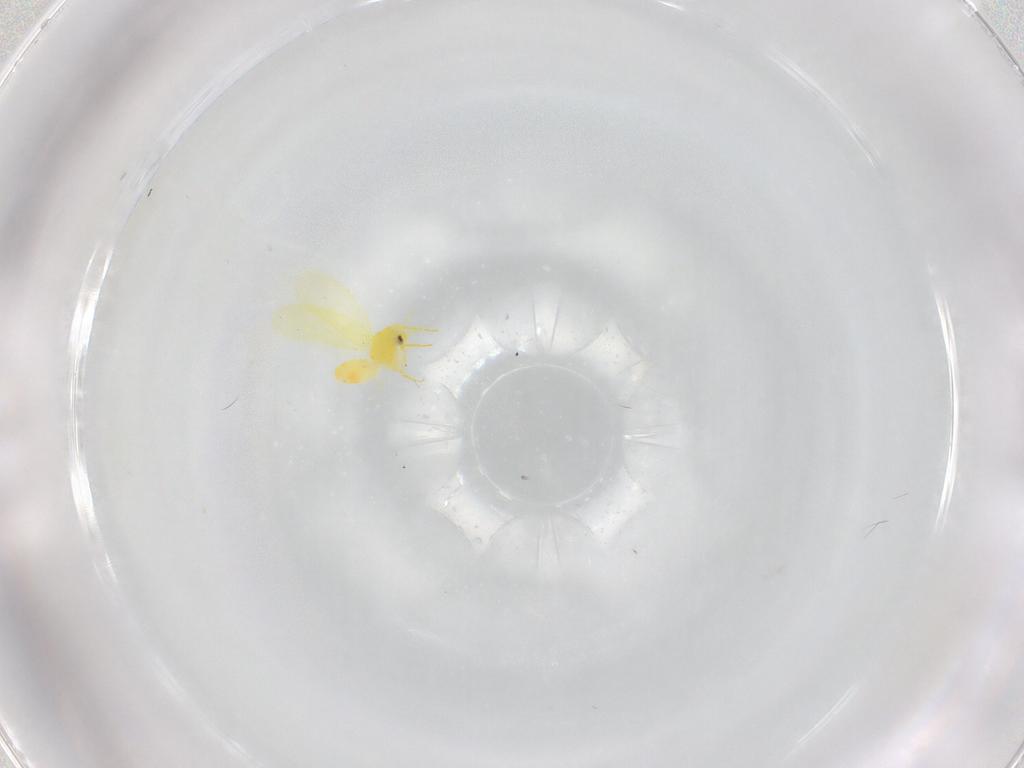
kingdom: Animalia
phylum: Arthropoda
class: Insecta
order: Hemiptera
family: Aleyrodidae
